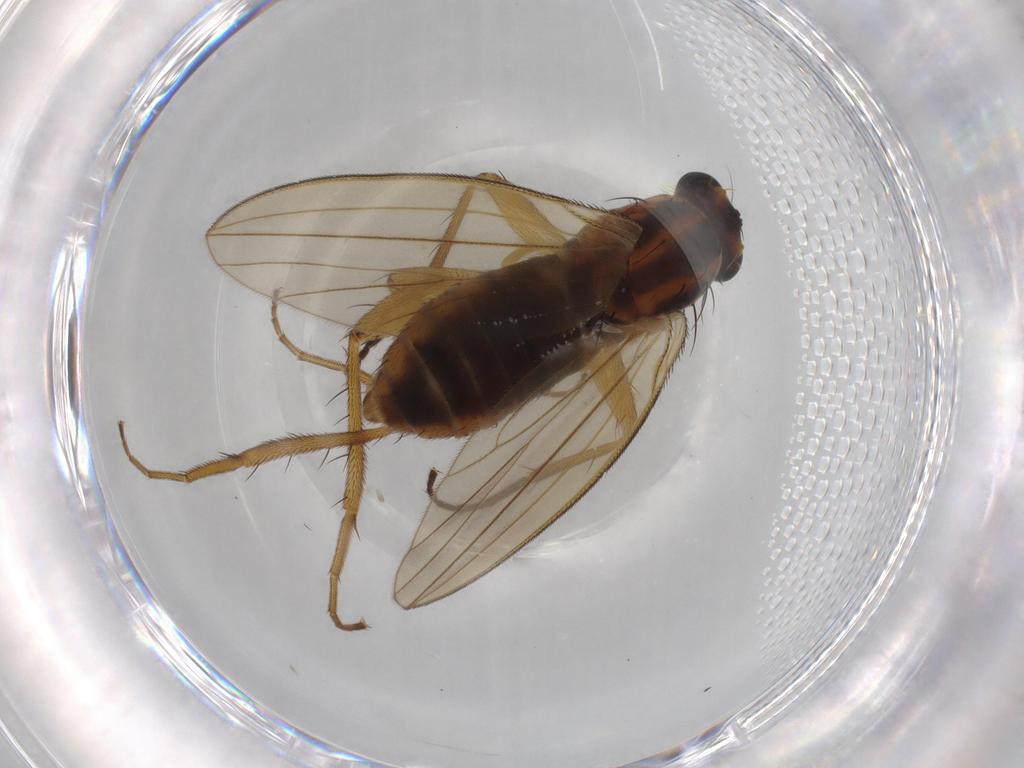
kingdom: Animalia
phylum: Arthropoda
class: Insecta
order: Diptera
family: Lonchopteridae
